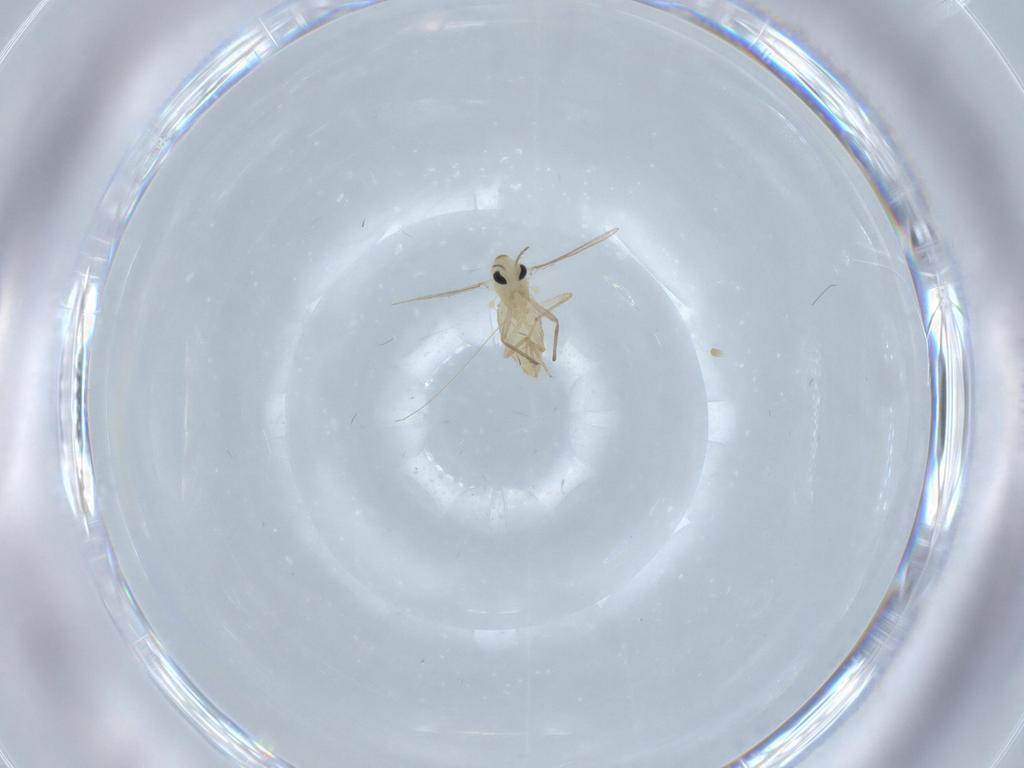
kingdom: Animalia
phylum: Arthropoda
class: Insecta
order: Diptera
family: Chironomidae
